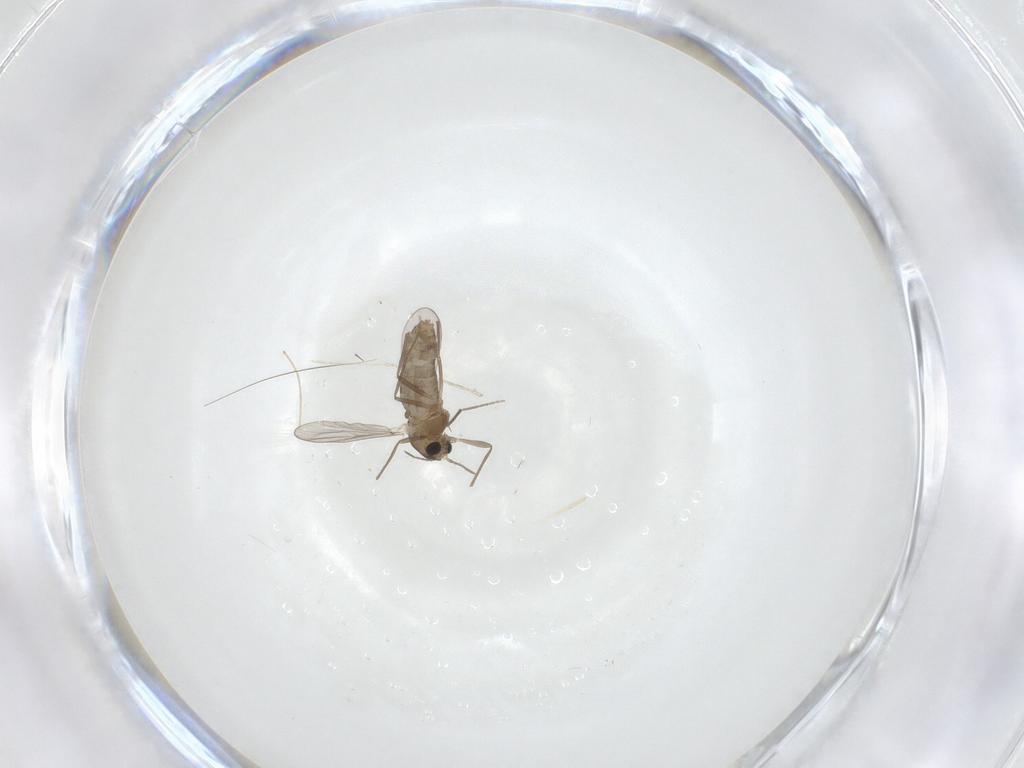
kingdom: Animalia
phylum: Arthropoda
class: Insecta
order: Diptera
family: Chironomidae
